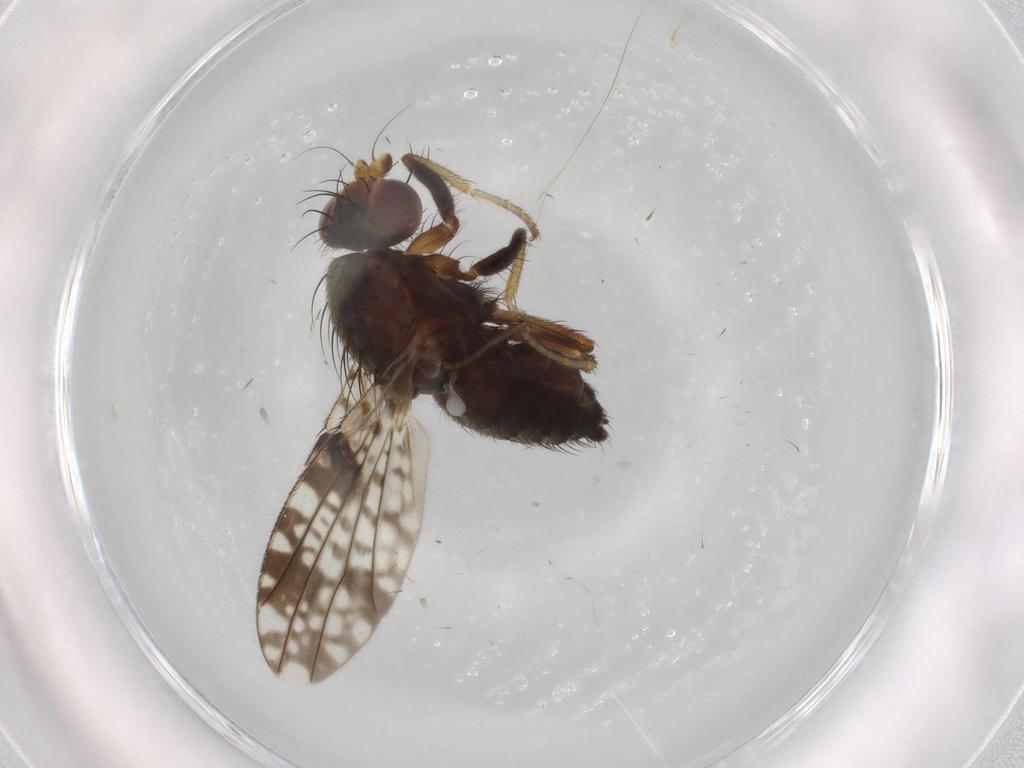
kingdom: Animalia
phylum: Arthropoda
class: Insecta
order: Diptera
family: Tephritidae
